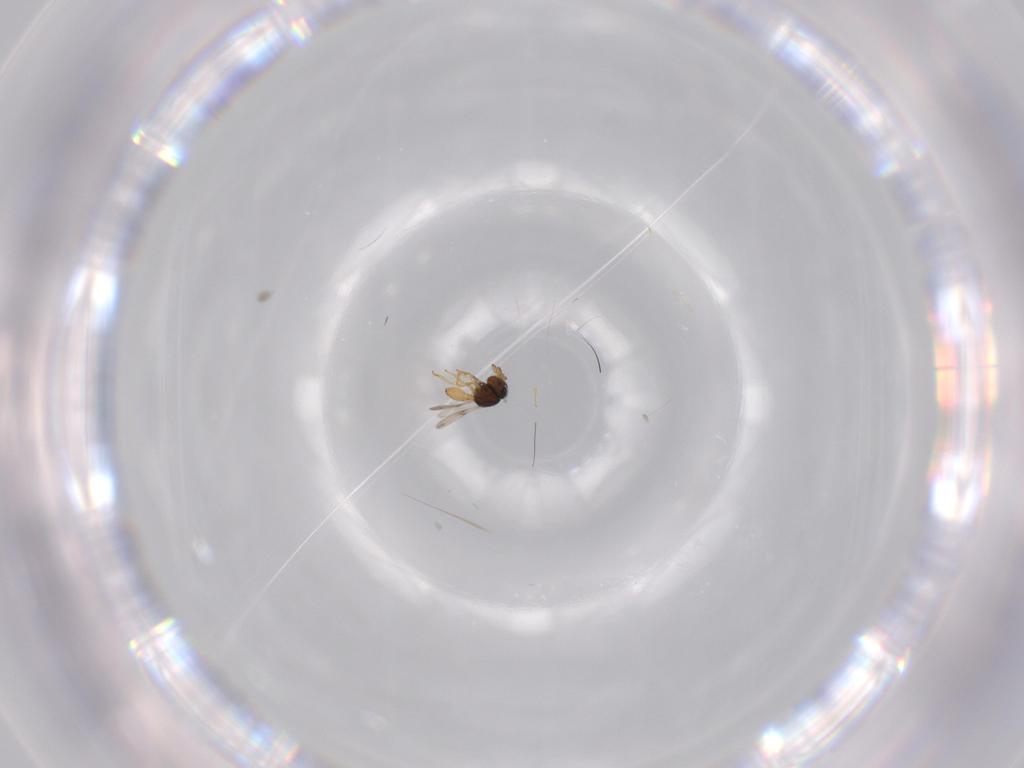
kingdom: Animalia
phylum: Arthropoda
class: Insecta
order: Hymenoptera
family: Scelionidae
